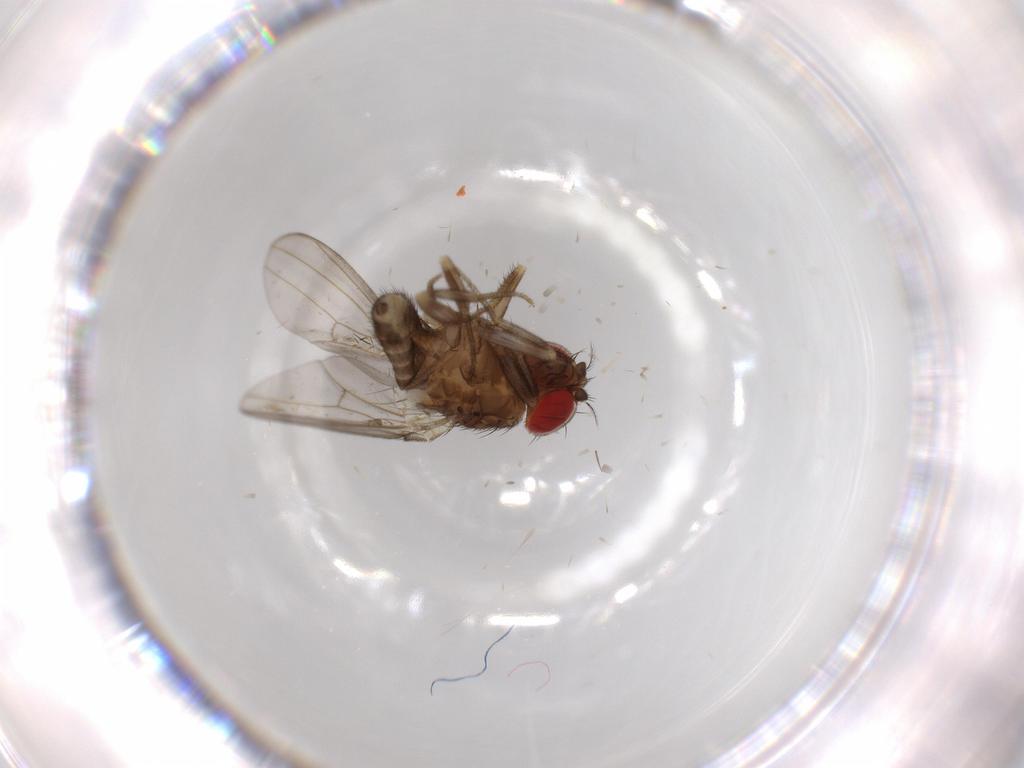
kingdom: Animalia
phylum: Arthropoda
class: Insecta
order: Diptera
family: Drosophilidae
